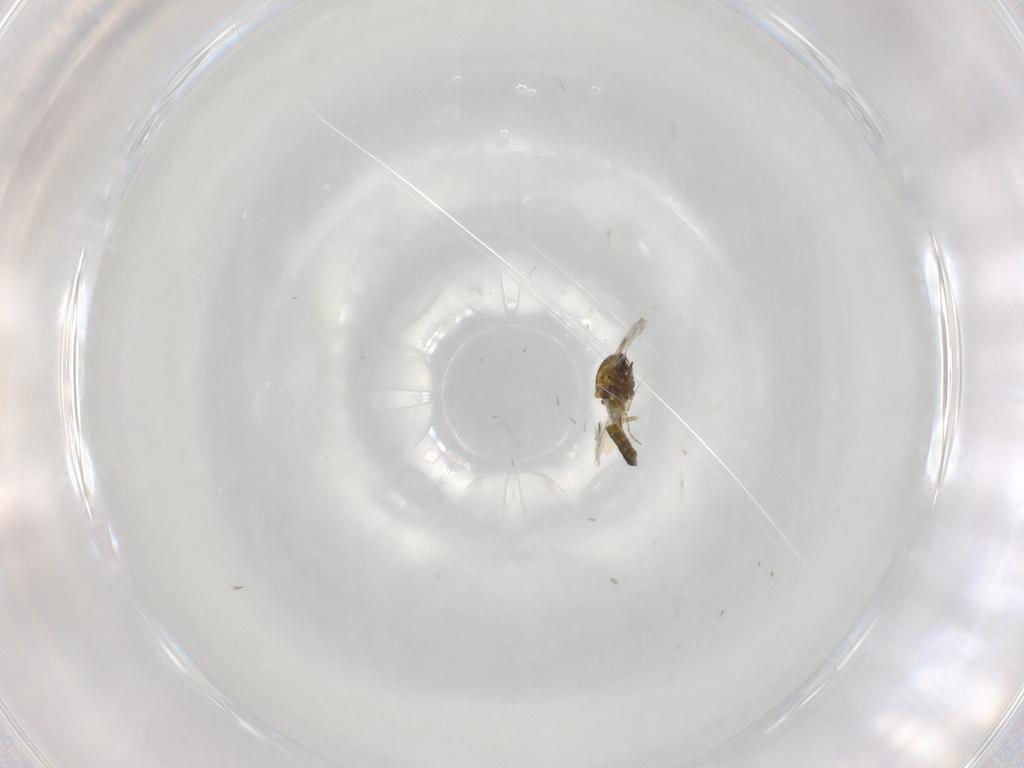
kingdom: Animalia
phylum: Arthropoda
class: Insecta
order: Diptera
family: Ceratopogonidae
